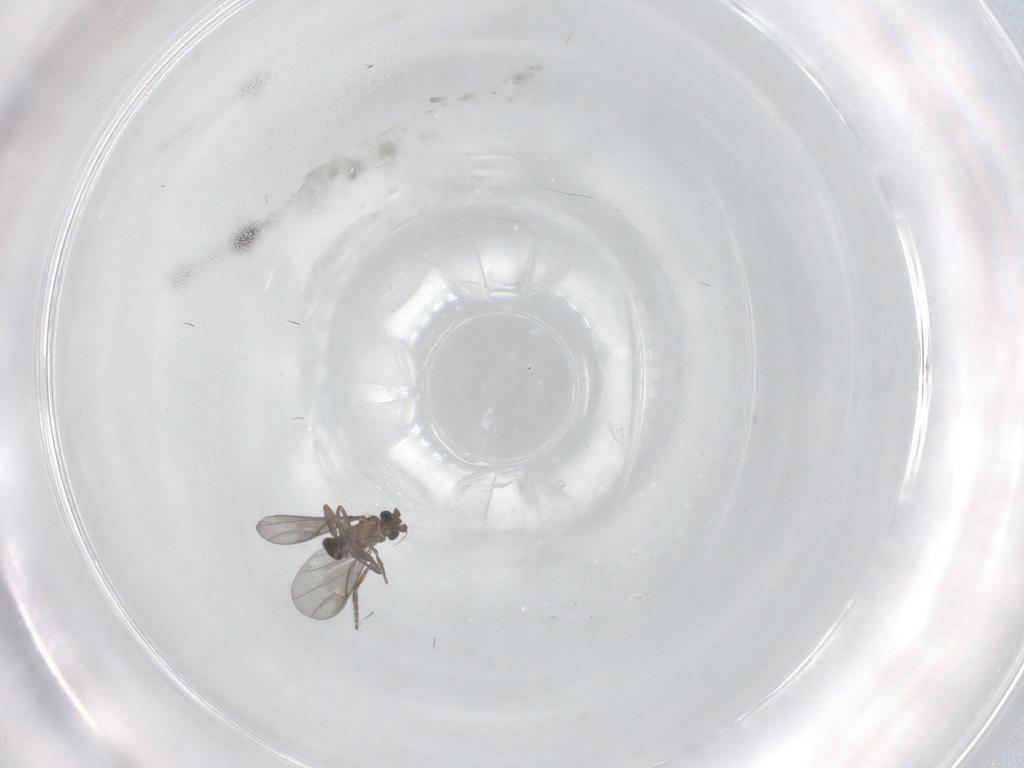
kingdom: Animalia
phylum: Arthropoda
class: Insecta
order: Diptera
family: Phoridae
